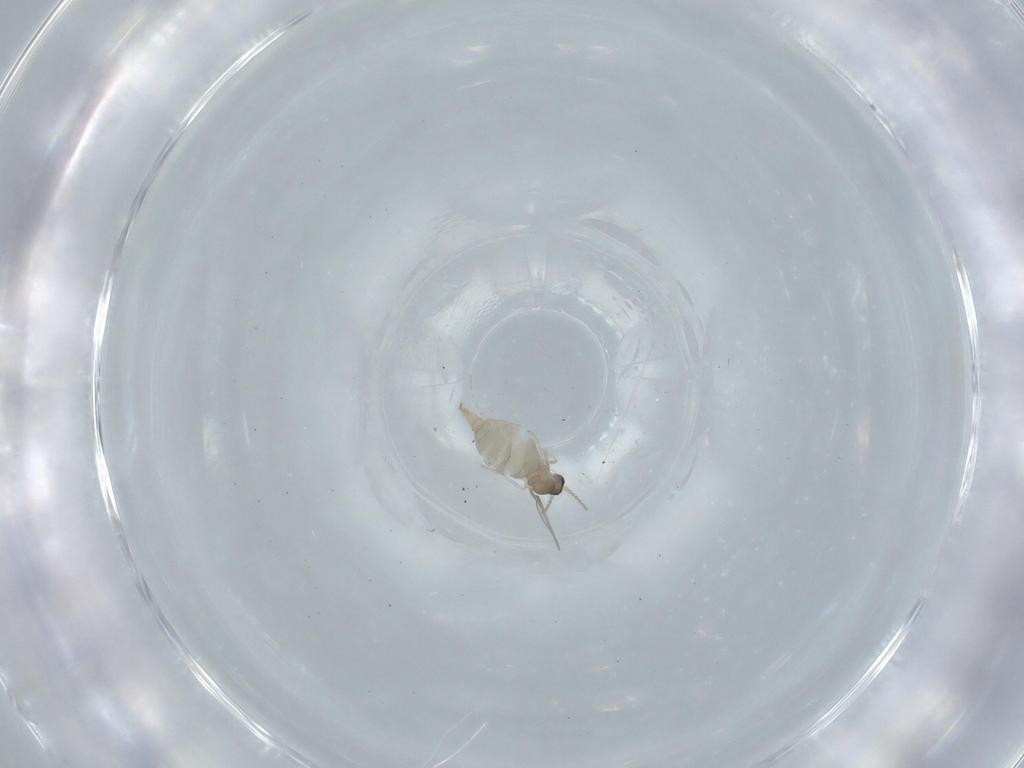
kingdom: Animalia
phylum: Arthropoda
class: Insecta
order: Diptera
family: Cecidomyiidae
